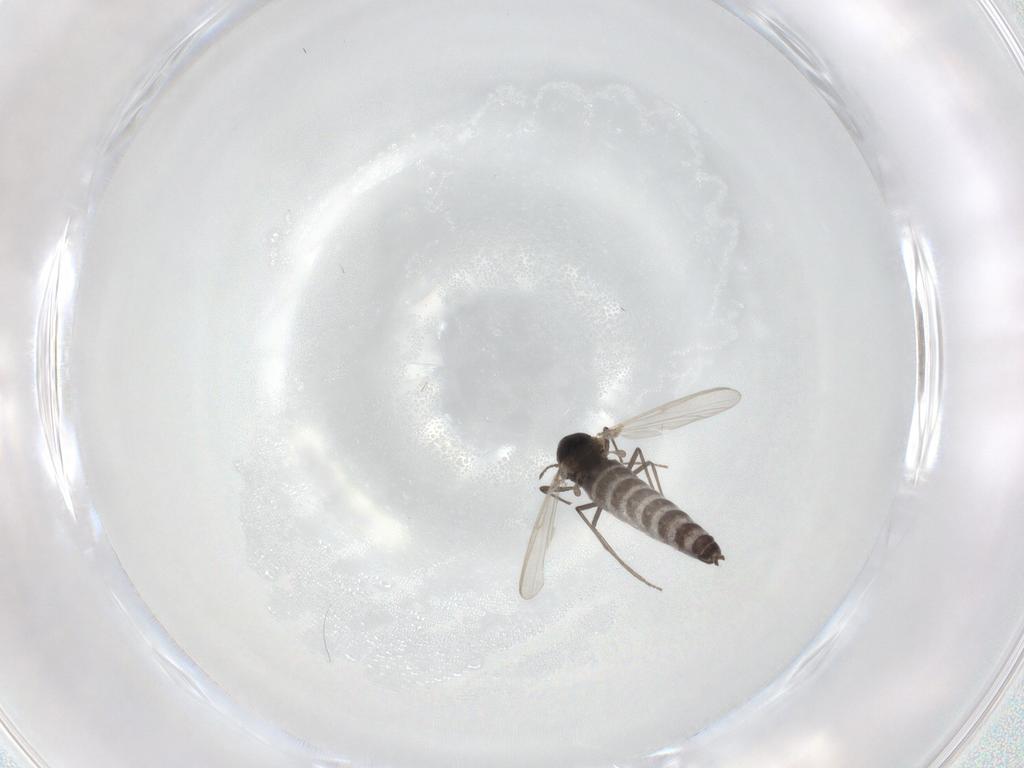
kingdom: Animalia
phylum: Arthropoda
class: Insecta
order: Diptera
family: Chironomidae
